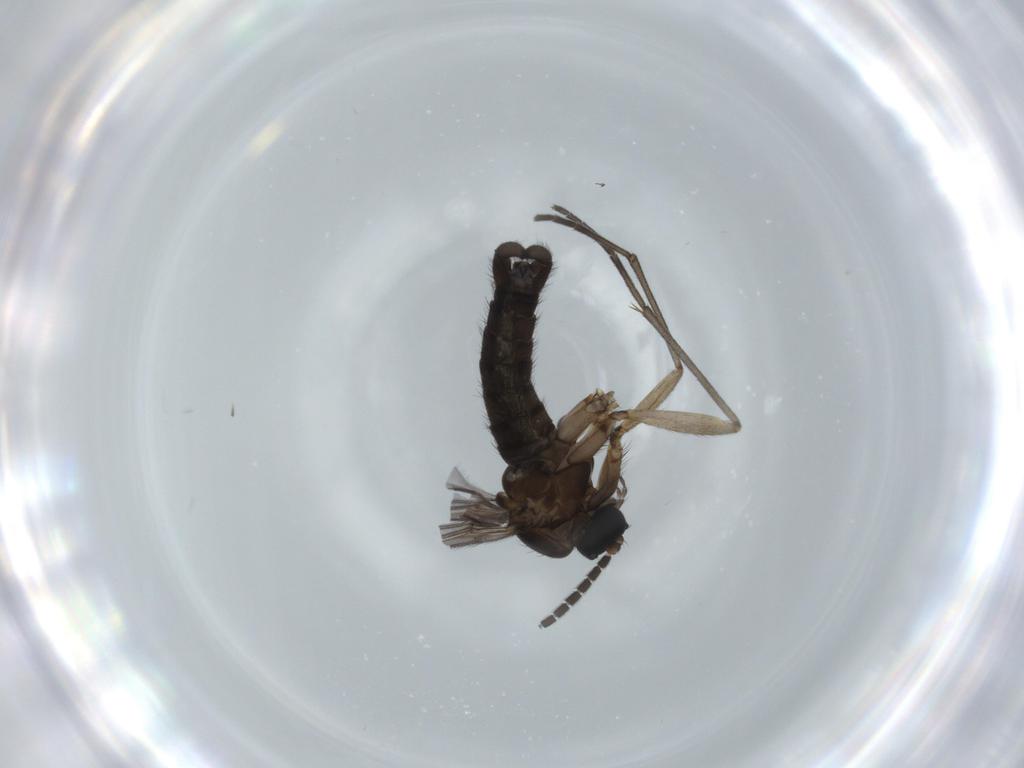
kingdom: Animalia
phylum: Arthropoda
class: Insecta
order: Diptera
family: Sciaridae
